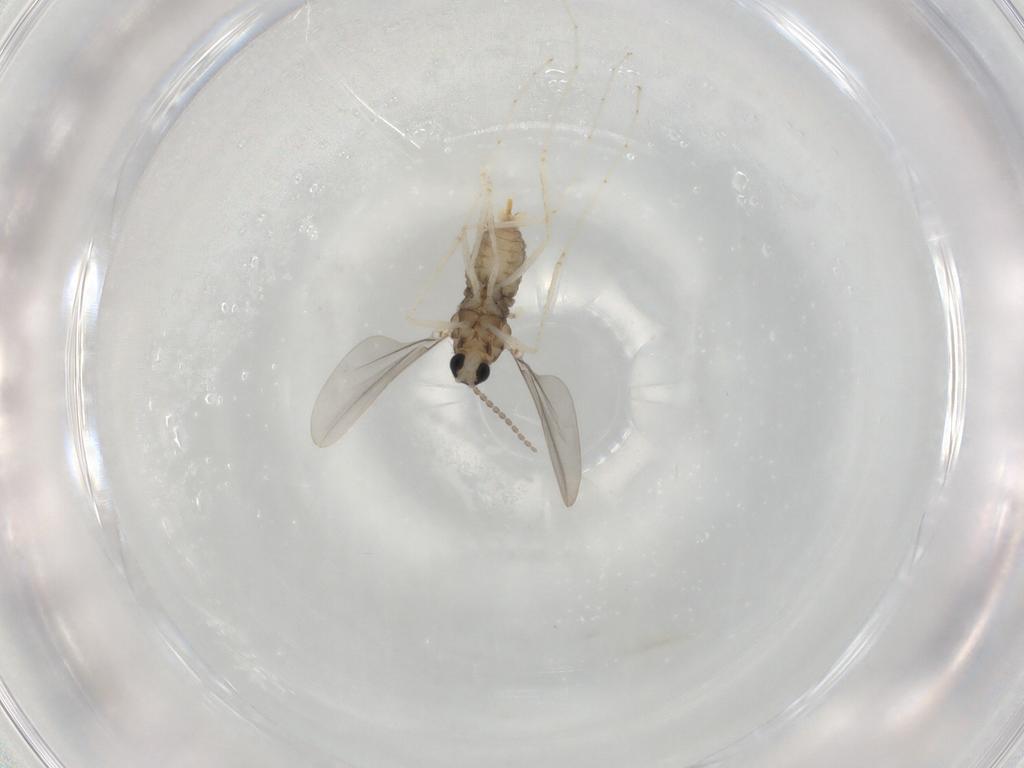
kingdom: Animalia
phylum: Arthropoda
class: Insecta
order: Diptera
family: Cecidomyiidae
